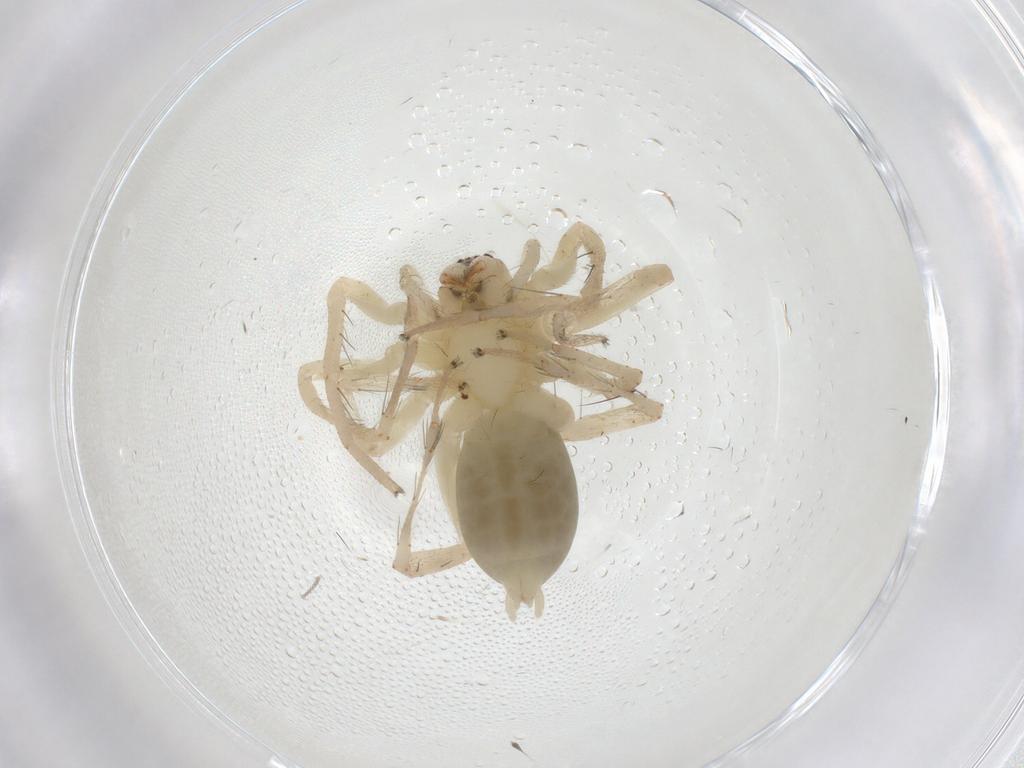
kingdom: Animalia
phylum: Arthropoda
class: Arachnida
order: Araneae
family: Anyphaenidae
